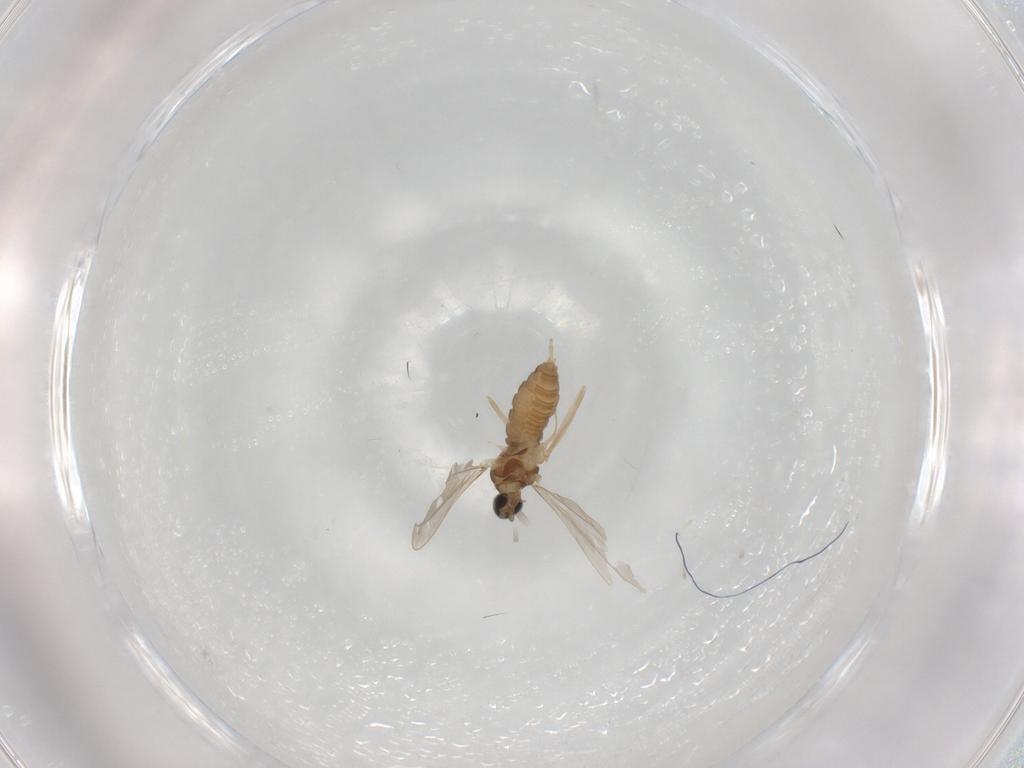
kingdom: Animalia
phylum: Arthropoda
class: Insecta
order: Diptera
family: Cecidomyiidae
